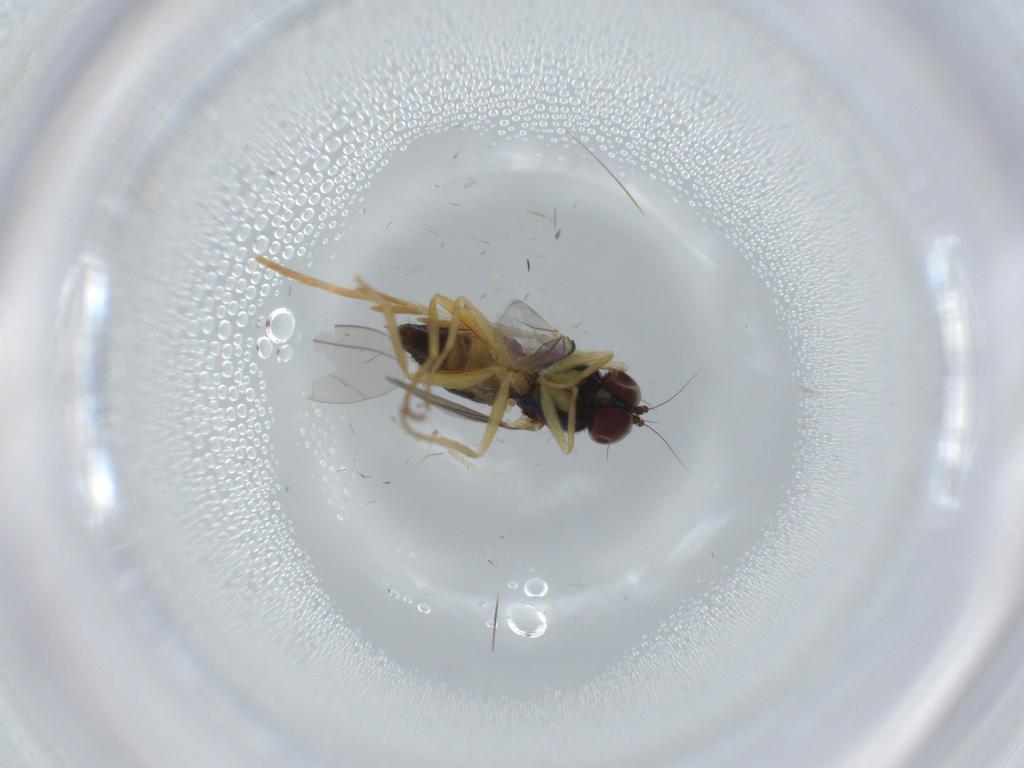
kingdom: Animalia
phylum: Arthropoda
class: Insecta
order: Diptera
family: Dolichopodidae
